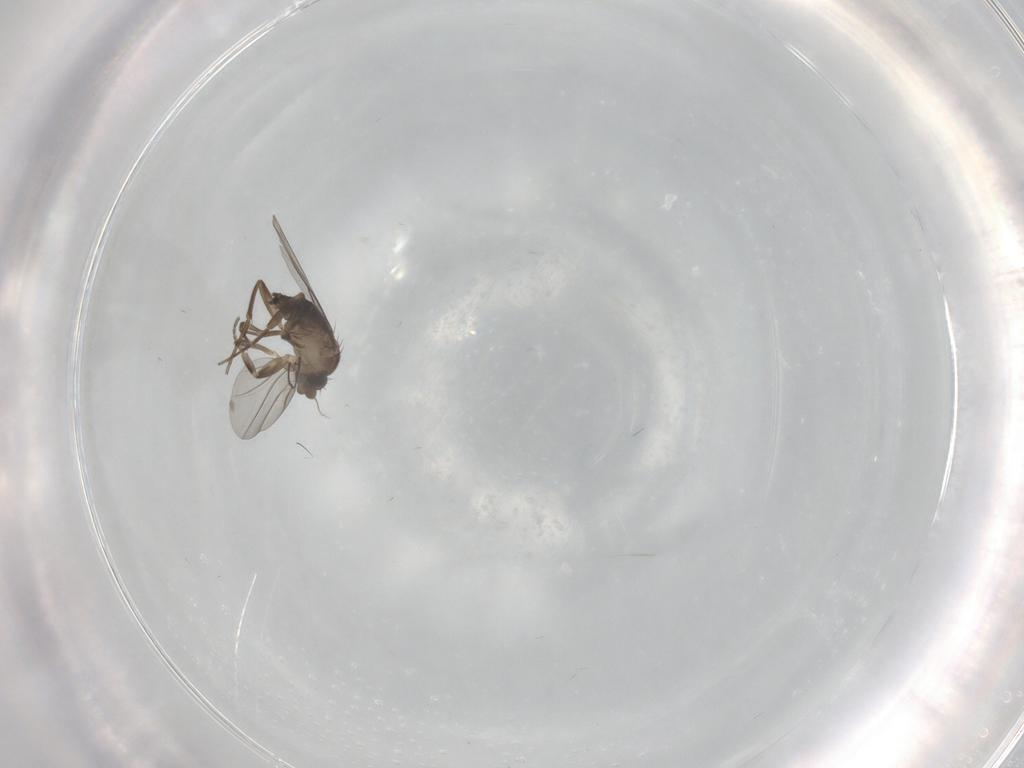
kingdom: Animalia
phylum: Arthropoda
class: Insecta
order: Diptera
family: Phoridae
